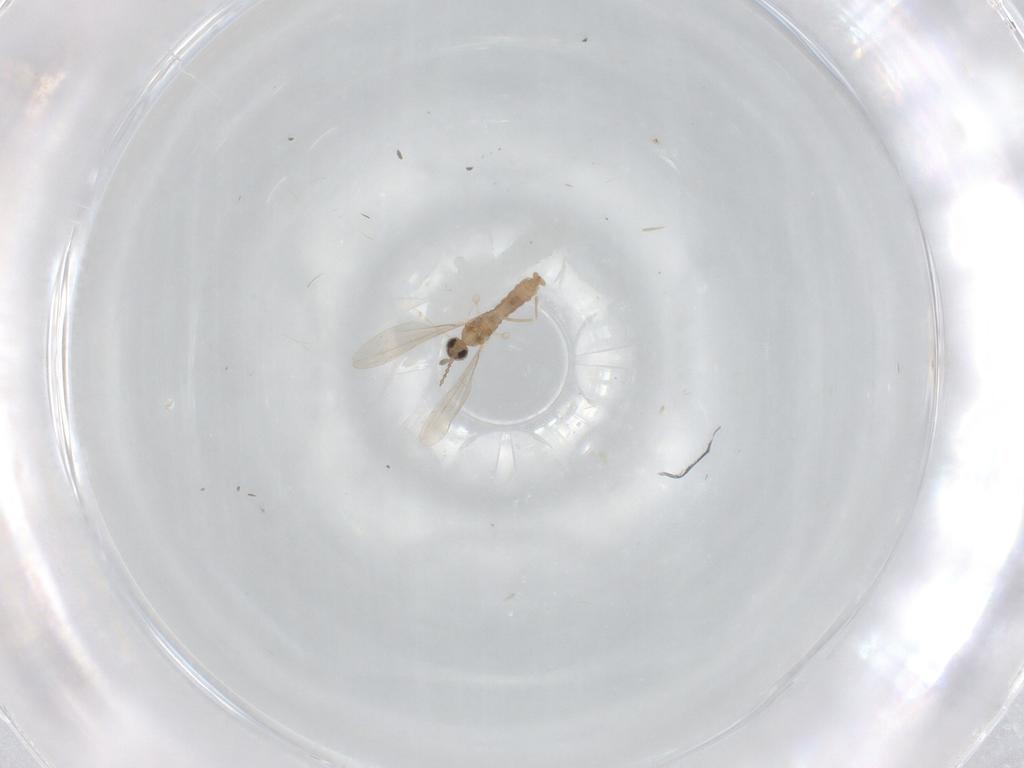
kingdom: Animalia
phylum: Arthropoda
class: Insecta
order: Diptera
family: Cecidomyiidae
